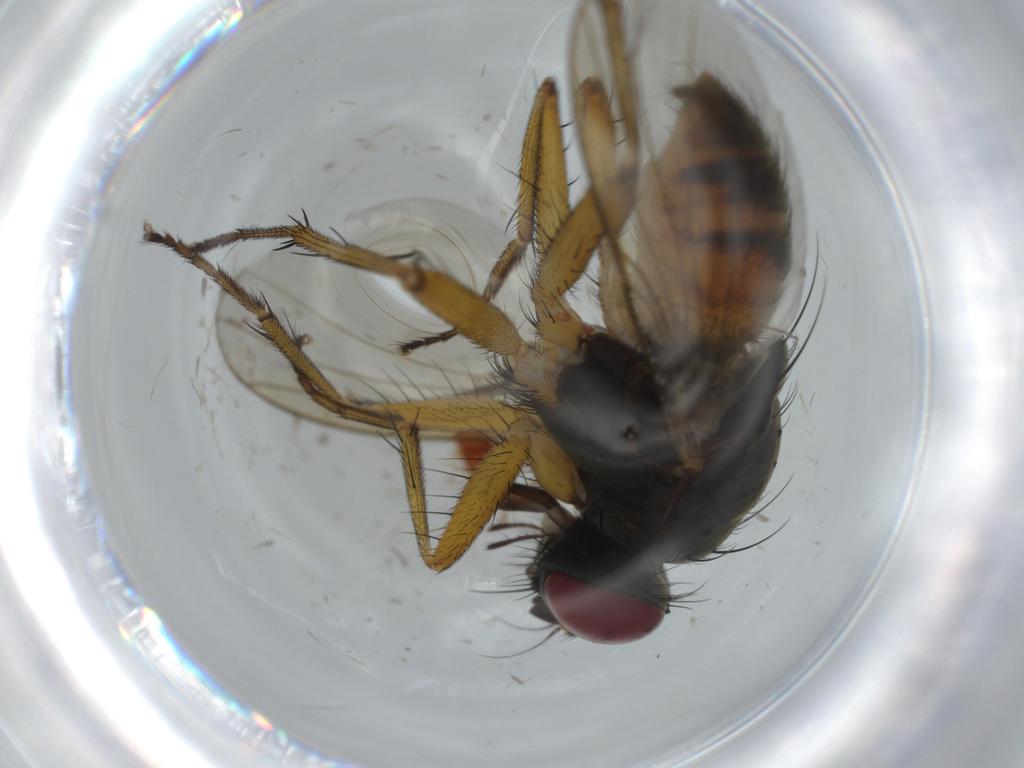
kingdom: Animalia
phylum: Arthropoda
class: Insecta
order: Diptera
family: Muscidae
